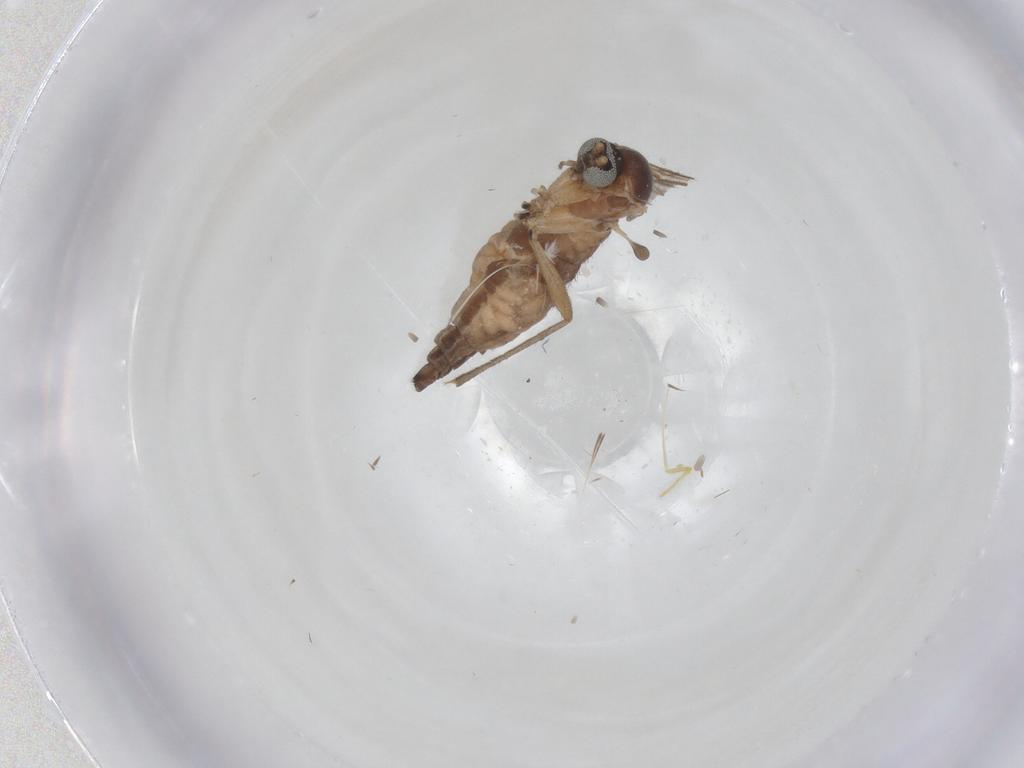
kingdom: Animalia
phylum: Arthropoda
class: Insecta
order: Diptera
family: Sciaridae
